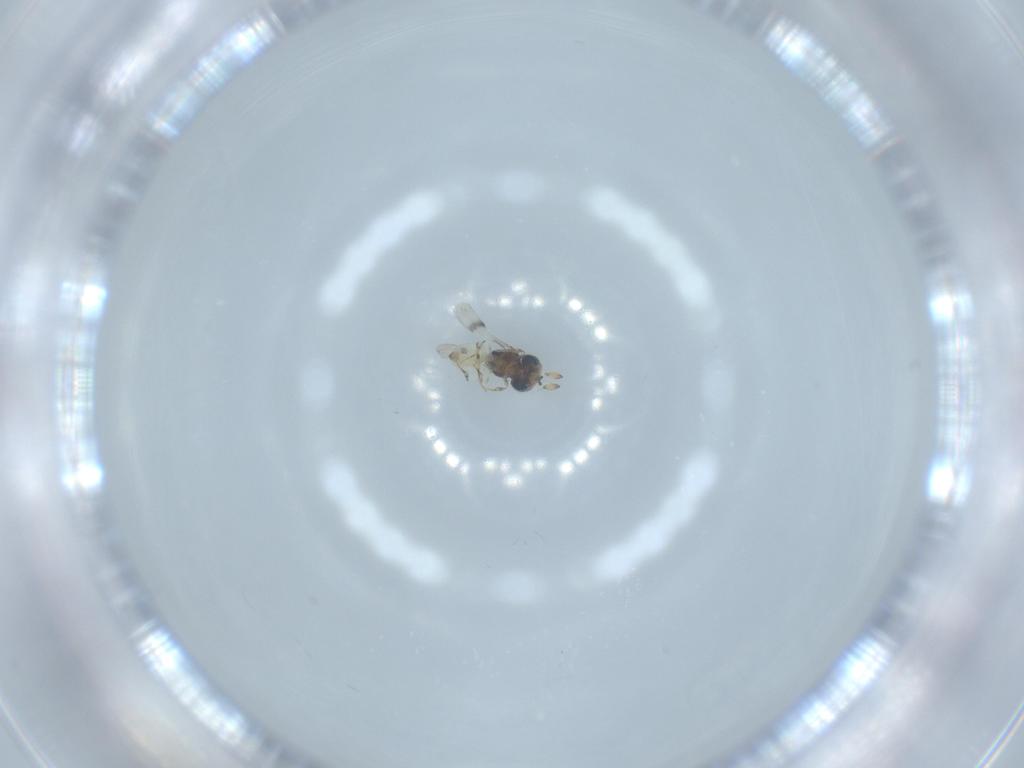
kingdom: Animalia
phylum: Arthropoda
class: Insecta
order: Hymenoptera
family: Scelionidae
